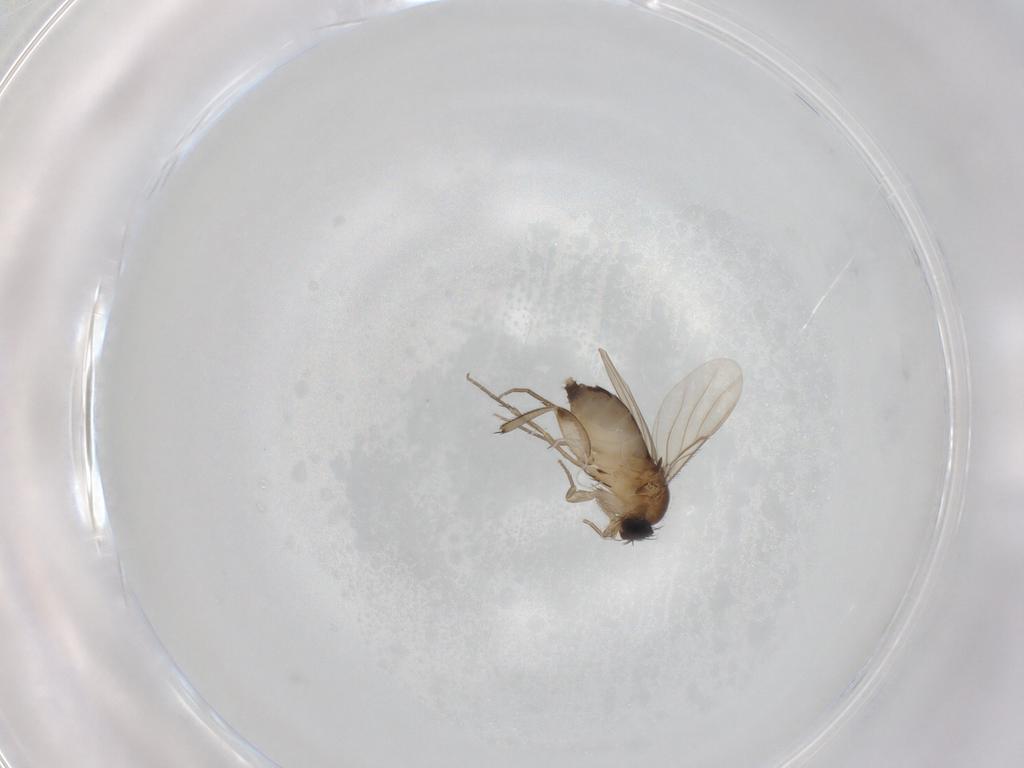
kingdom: Animalia
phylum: Arthropoda
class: Insecta
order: Diptera
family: Phoridae
